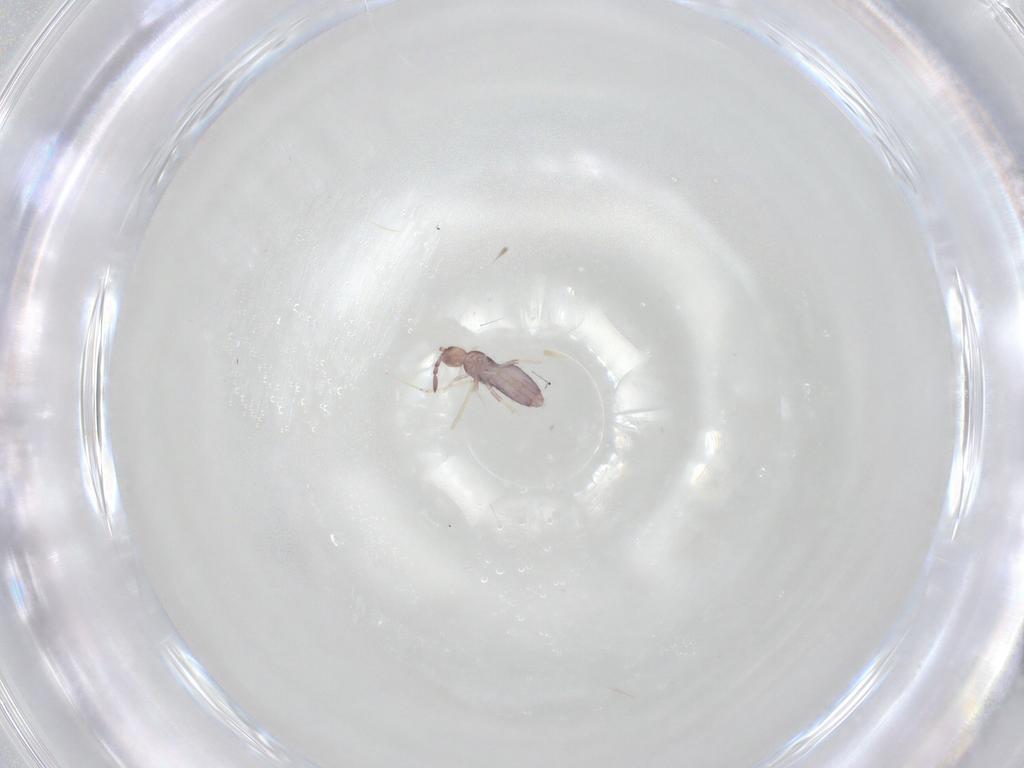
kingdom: Animalia
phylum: Arthropoda
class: Collembola
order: Entomobryomorpha
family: Entomobryidae
